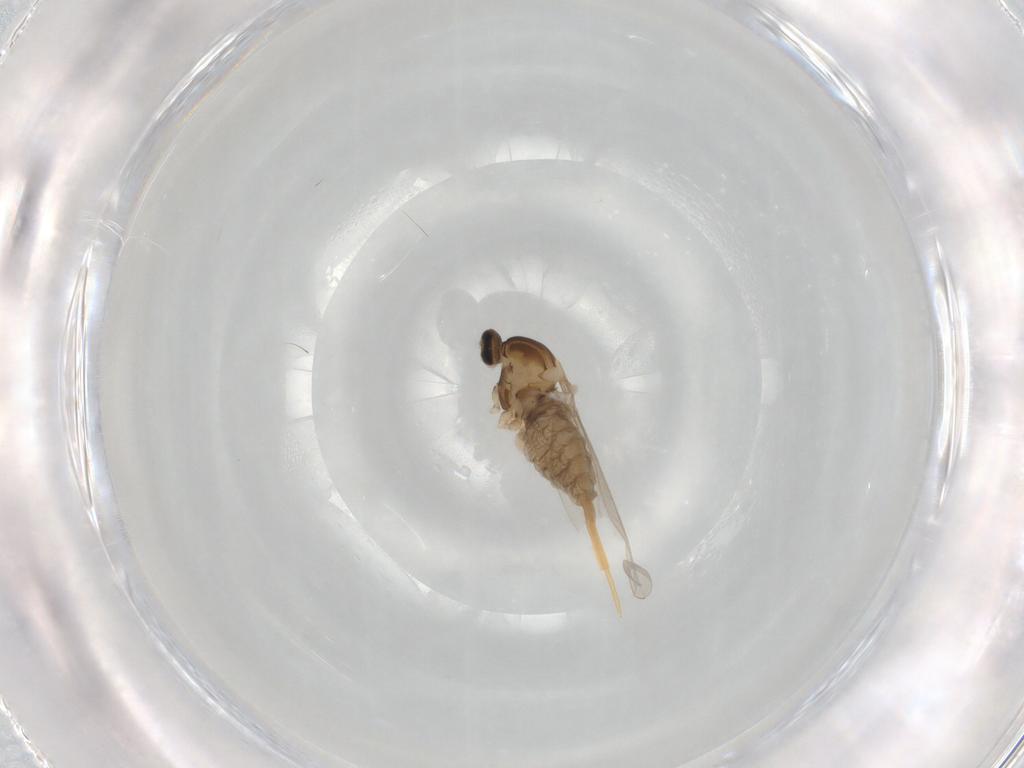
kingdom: Animalia
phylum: Arthropoda
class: Insecta
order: Diptera
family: Cecidomyiidae
